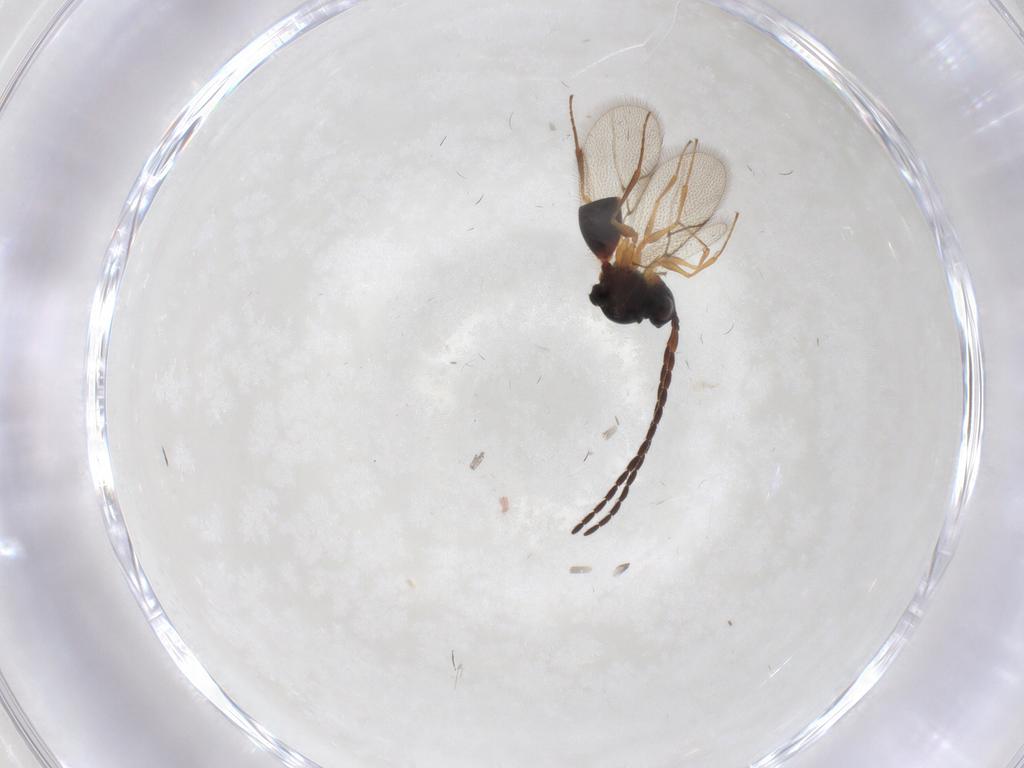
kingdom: Animalia
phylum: Arthropoda
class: Insecta
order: Hymenoptera
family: Figitidae
